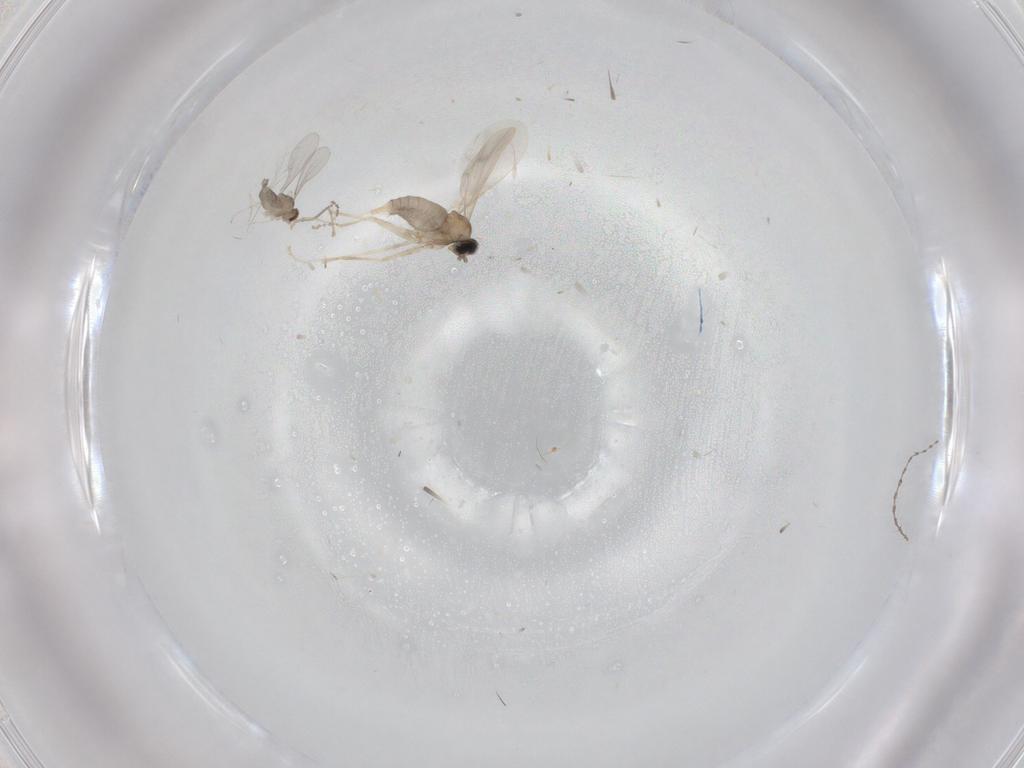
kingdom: Animalia
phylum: Arthropoda
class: Insecta
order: Diptera
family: Cecidomyiidae
